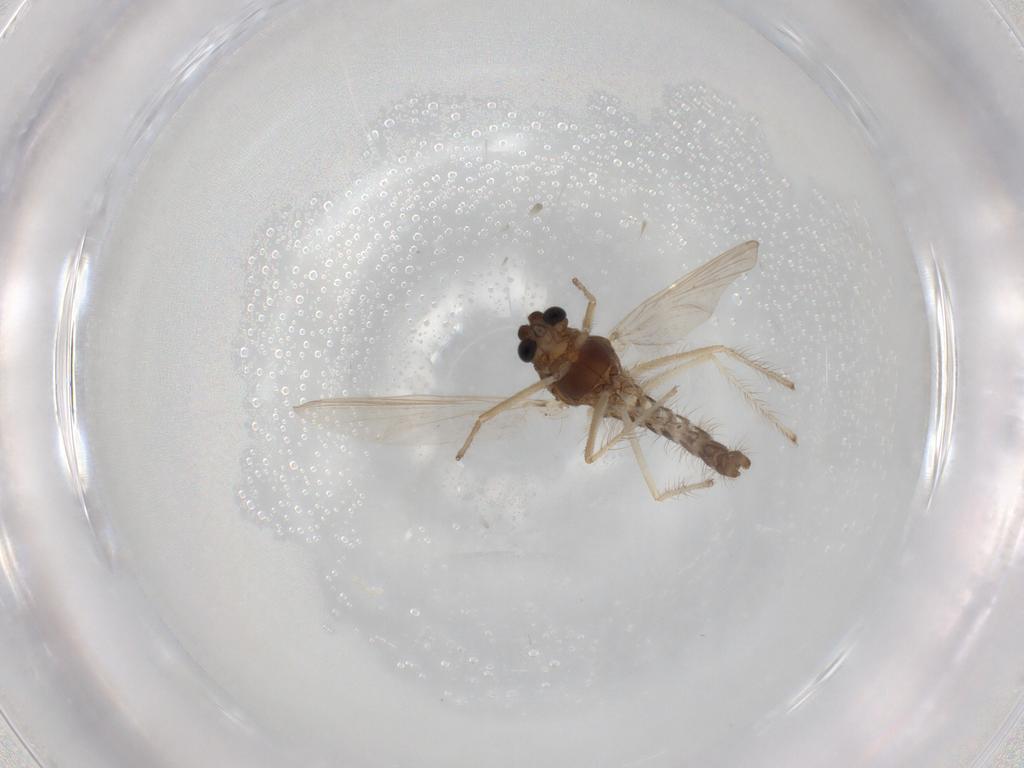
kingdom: Animalia
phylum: Arthropoda
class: Insecta
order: Diptera
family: Chironomidae
